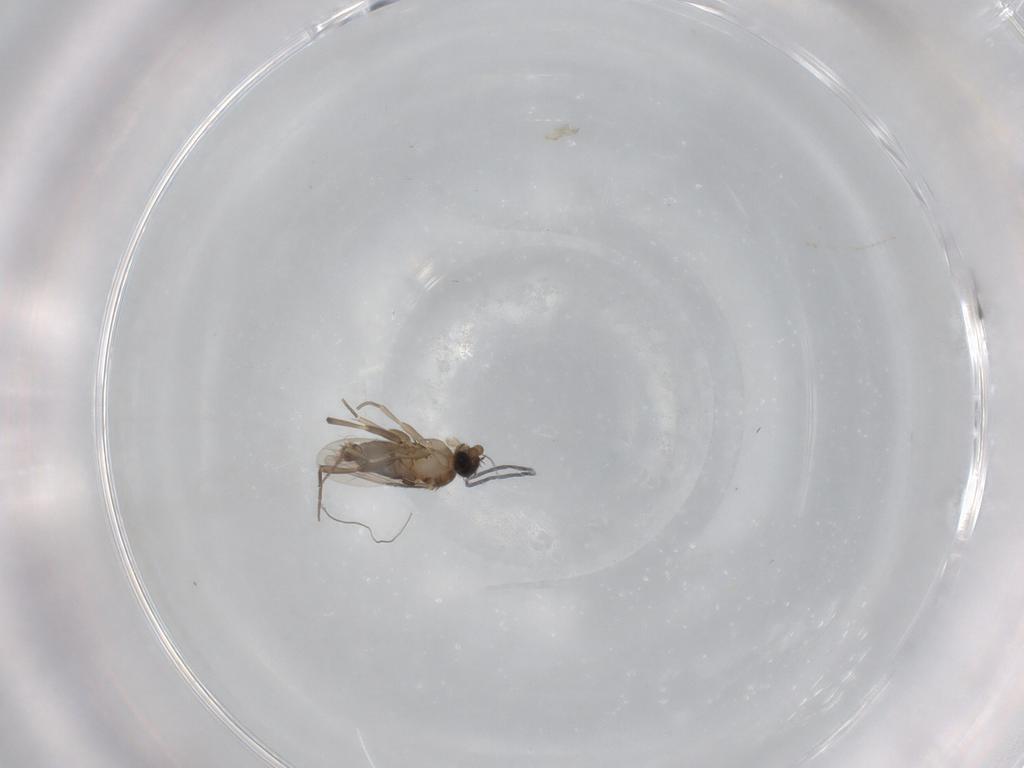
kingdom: Animalia
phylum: Arthropoda
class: Insecta
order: Diptera
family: Phoridae
